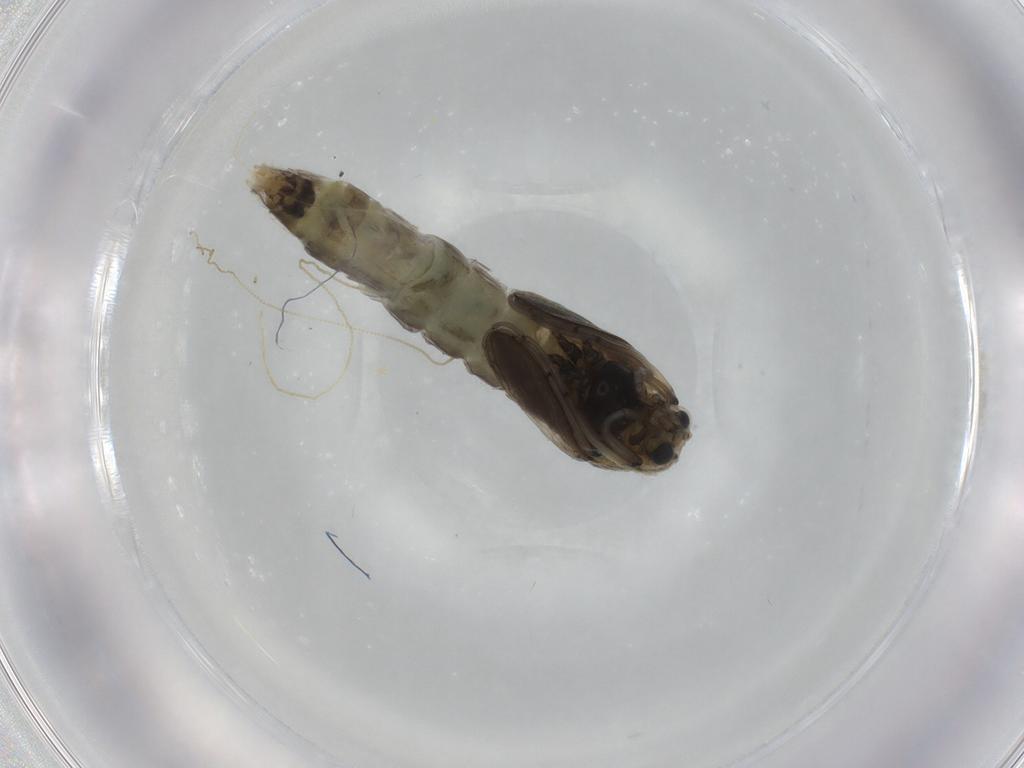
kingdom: Animalia
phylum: Arthropoda
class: Insecta
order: Diptera
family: Chironomidae
